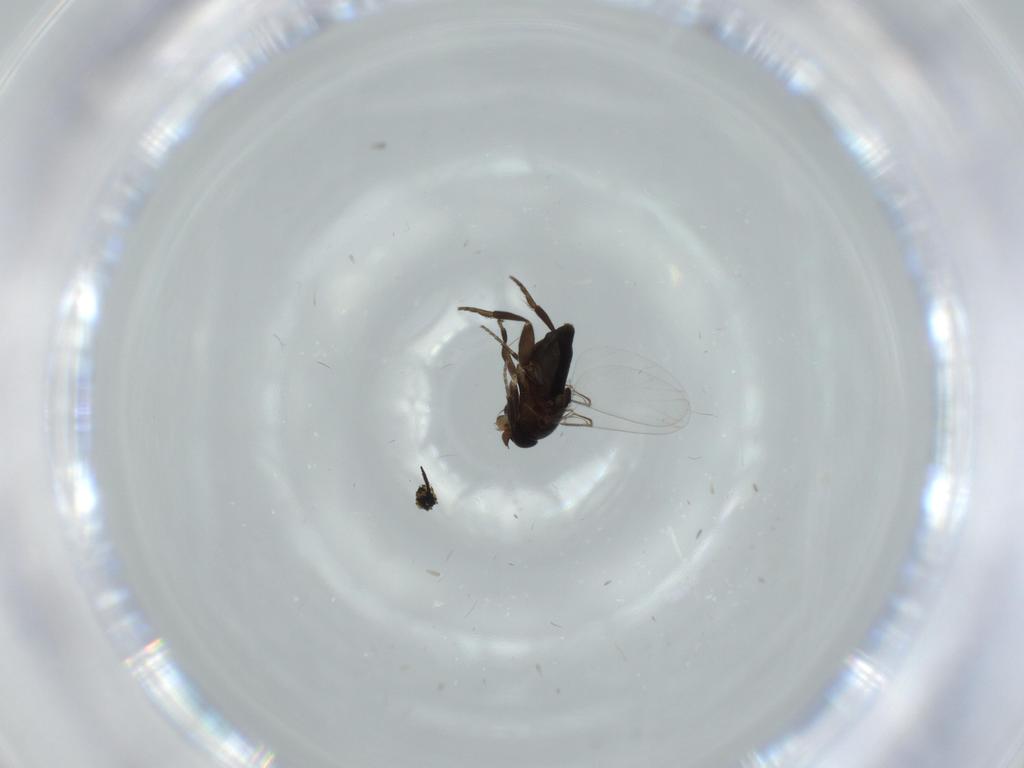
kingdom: Animalia
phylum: Arthropoda
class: Insecta
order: Diptera
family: Phoridae
